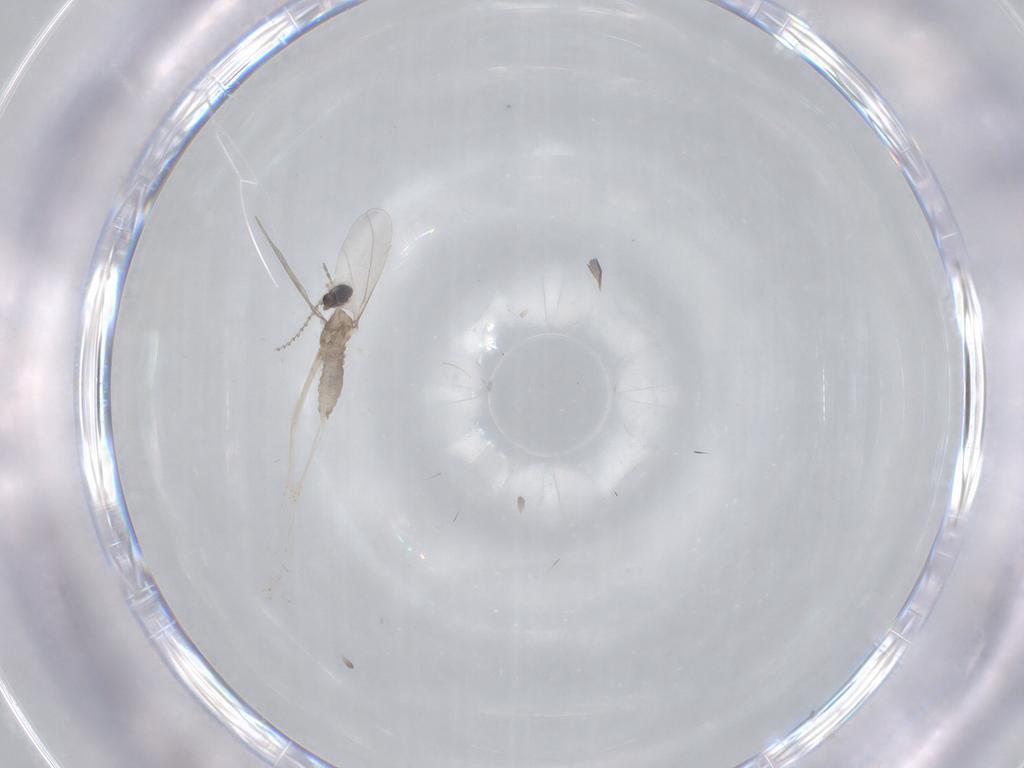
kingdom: Animalia
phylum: Arthropoda
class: Insecta
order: Diptera
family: Cecidomyiidae
